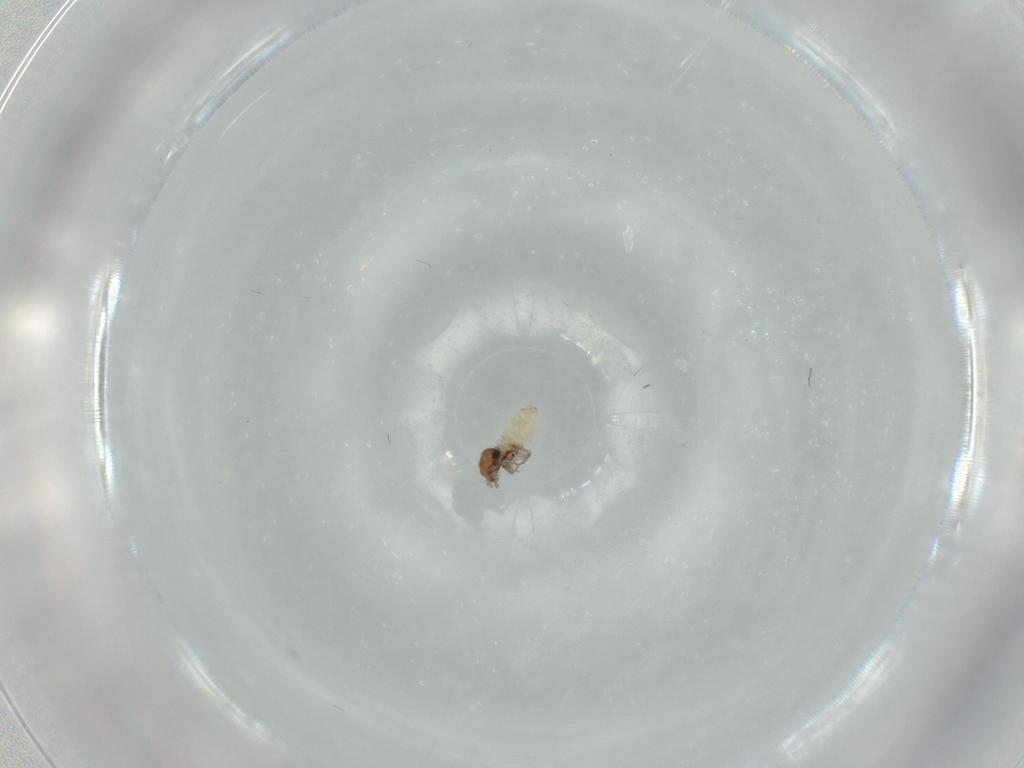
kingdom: Animalia
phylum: Arthropoda
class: Insecta
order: Psocodea
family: Lepidopsocidae
